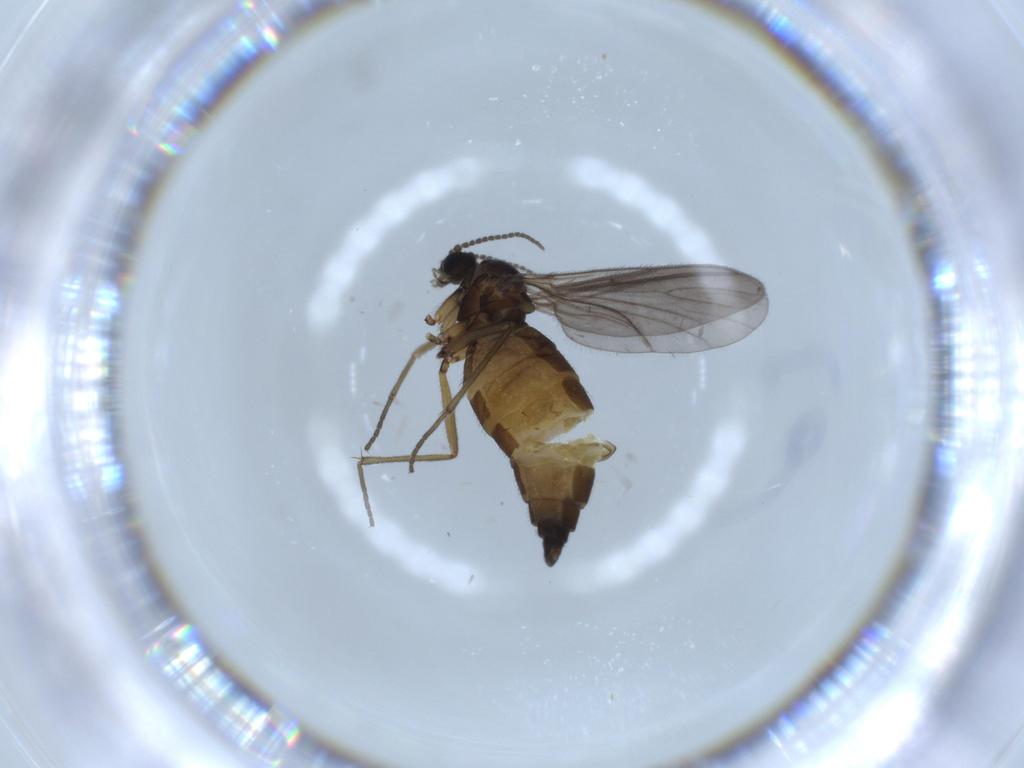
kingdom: Animalia
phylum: Arthropoda
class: Insecta
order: Diptera
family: Sciaridae
